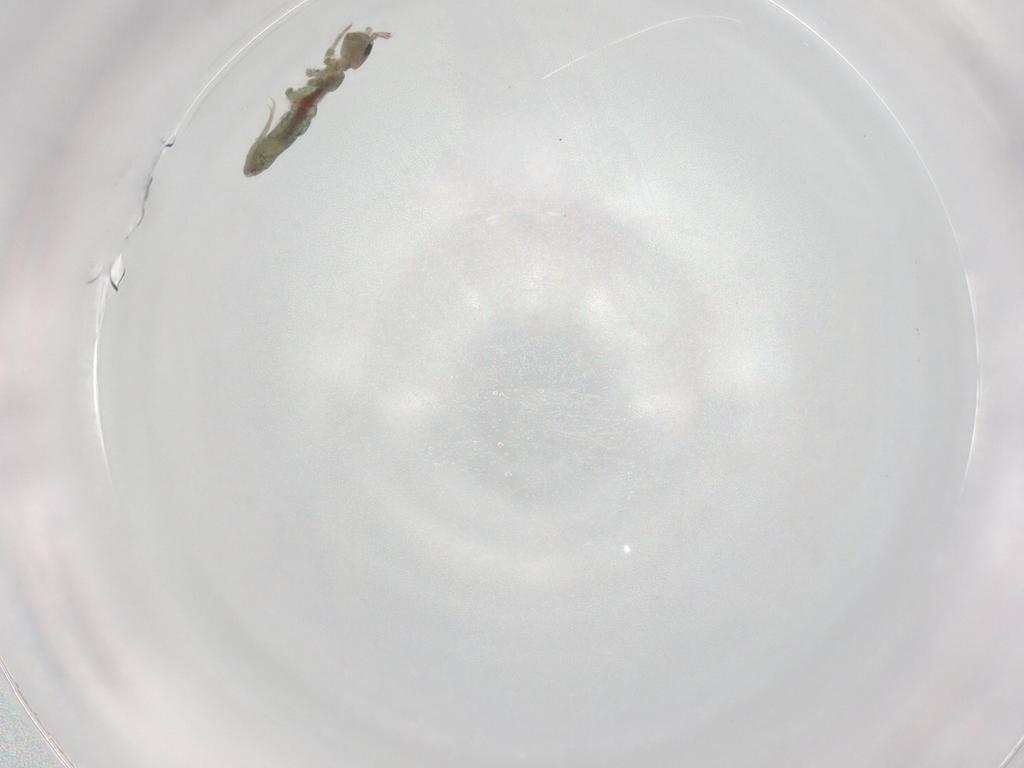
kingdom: Animalia
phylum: Arthropoda
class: Collembola
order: Entomobryomorpha
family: Isotomidae
